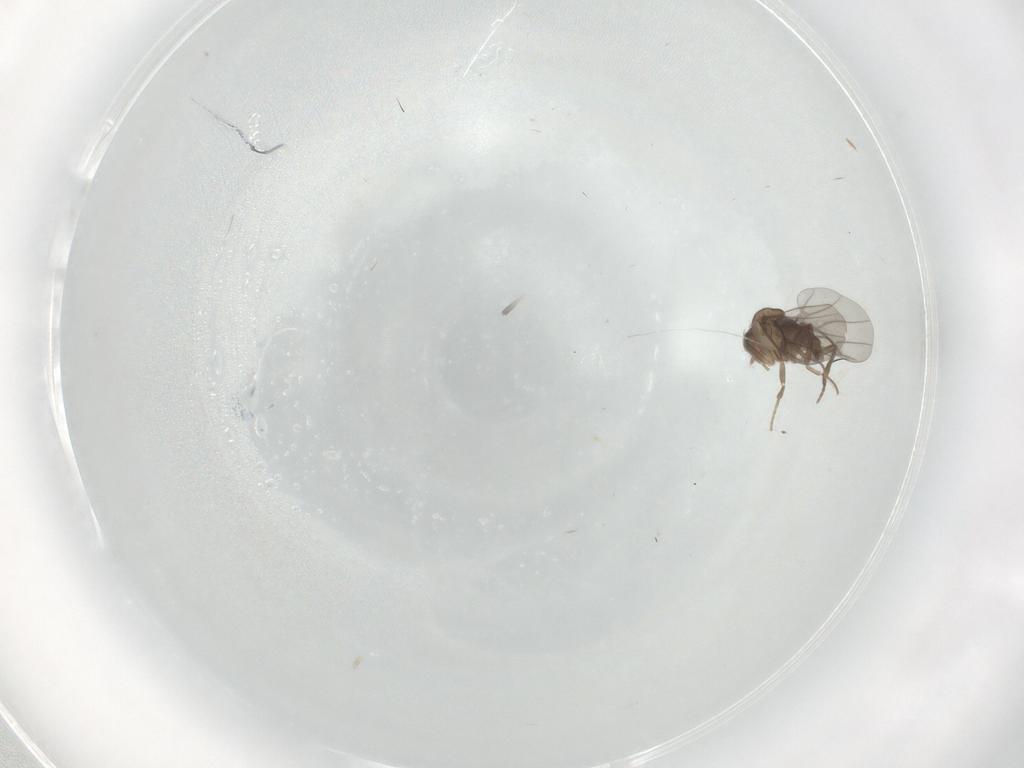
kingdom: Animalia
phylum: Arthropoda
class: Insecta
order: Diptera
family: Phoridae
